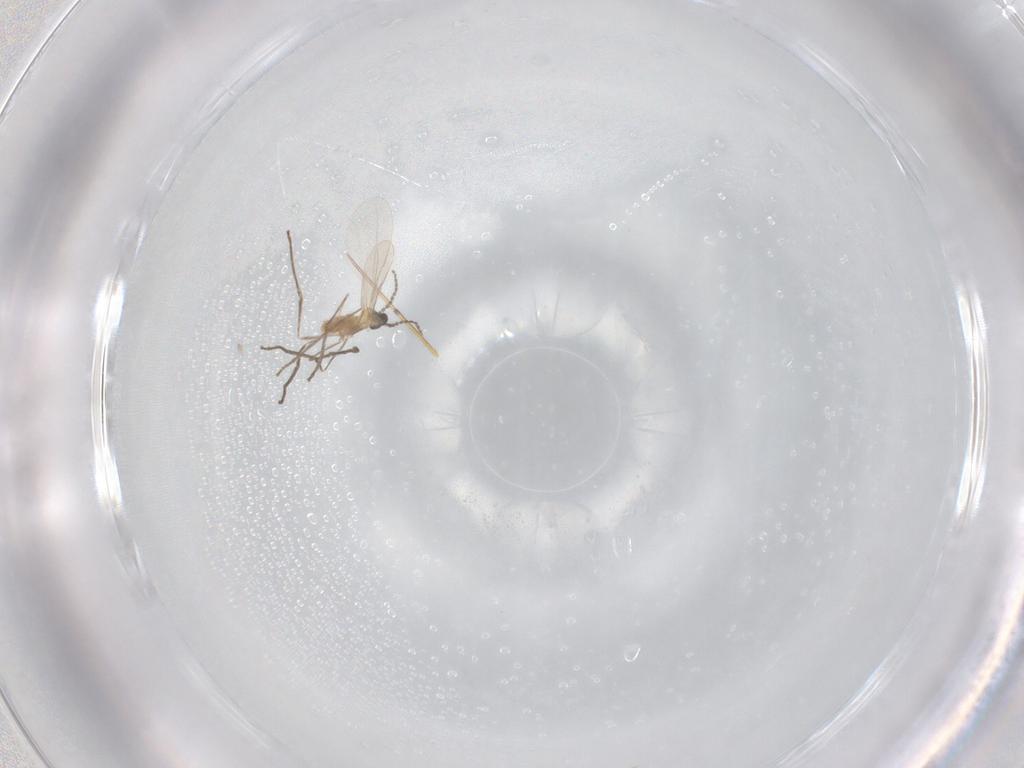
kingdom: Animalia
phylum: Arthropoda
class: Insecta
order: Diptera
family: Cecidomyiidae
